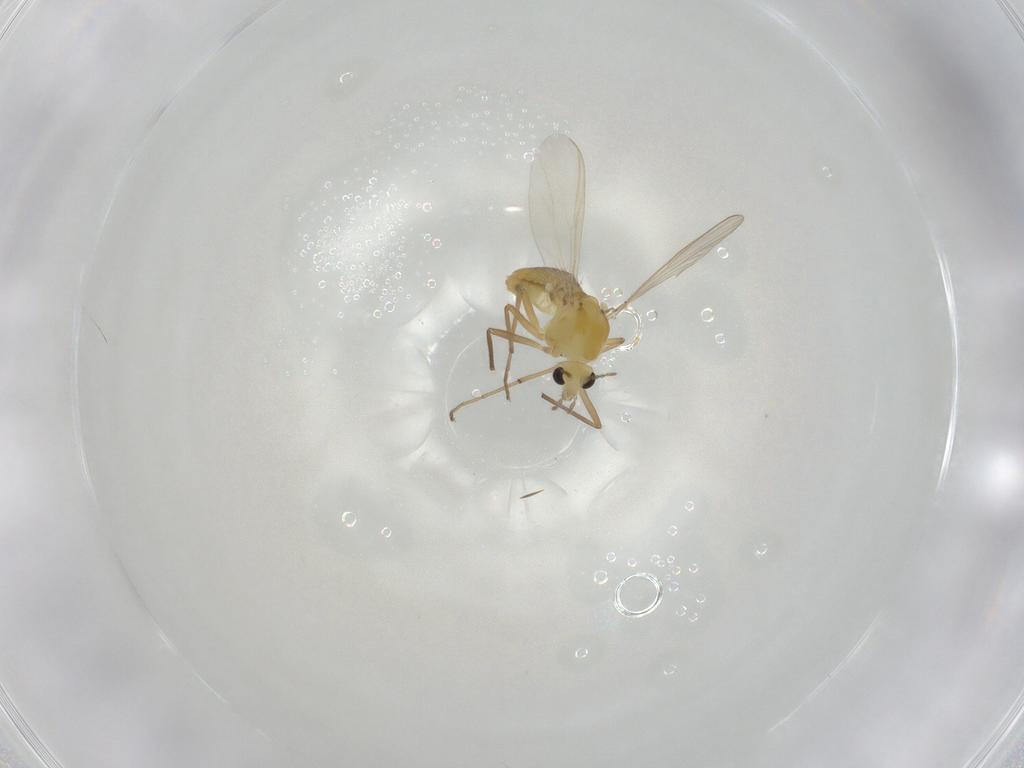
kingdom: Animalia
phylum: Arthropoda
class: Insecta
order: Diptera
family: Chironomidae
